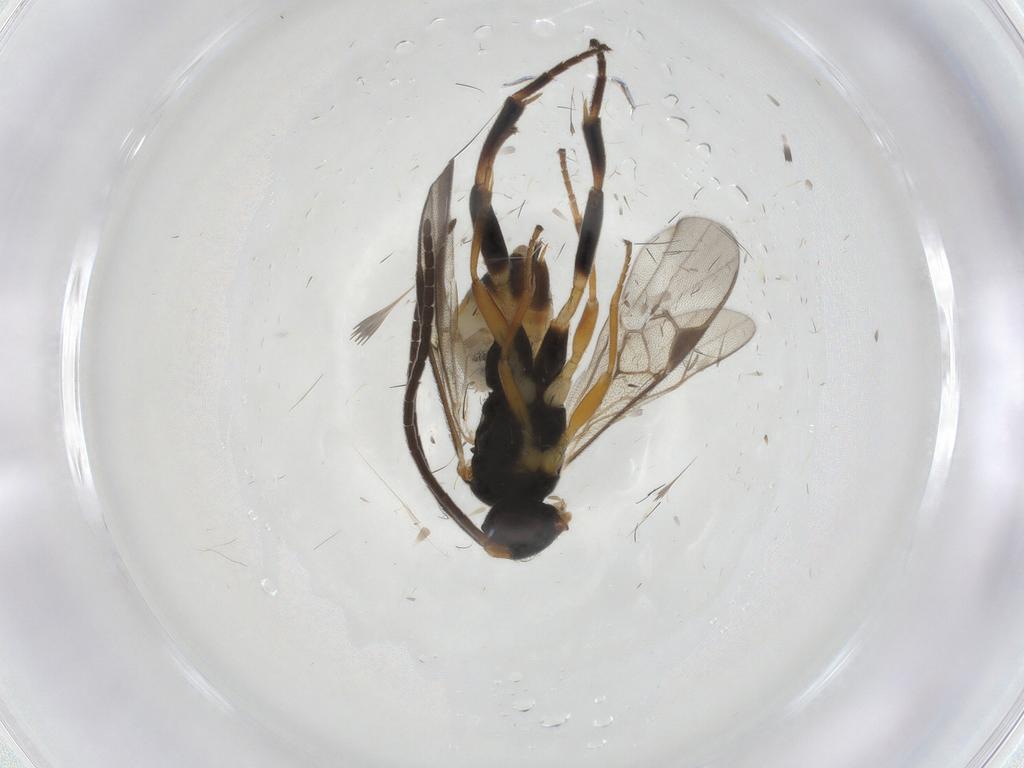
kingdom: Animalia
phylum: Arthropoda
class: Insecta
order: Hymenoptera
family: Braconidae
